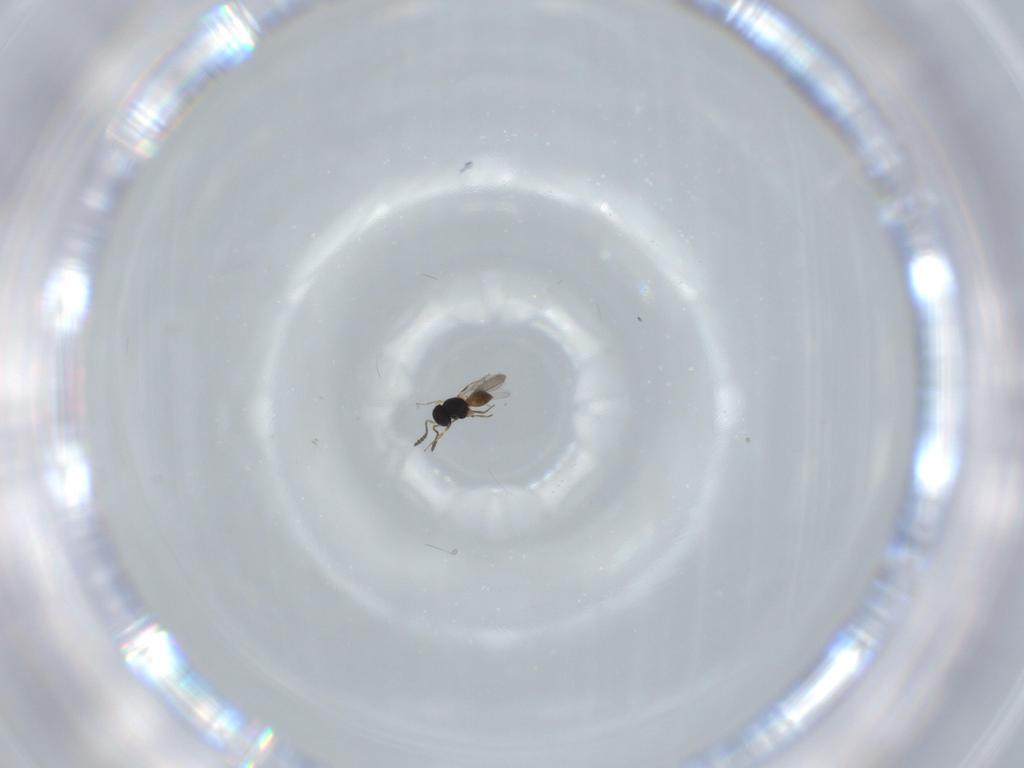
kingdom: Animalia
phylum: Arthropoda
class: Insecta
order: Hymenoptera
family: Scelionidae
